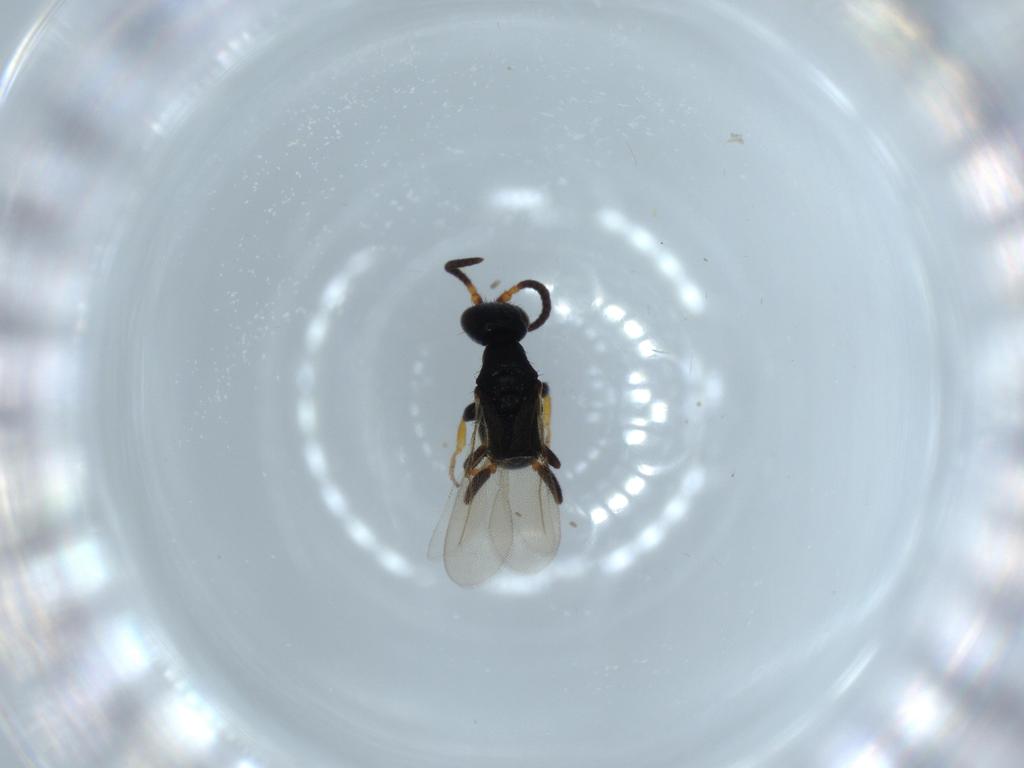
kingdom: Animalia
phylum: Arthropoda
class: Insecta
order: Hymenoptera
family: Bethylidae
